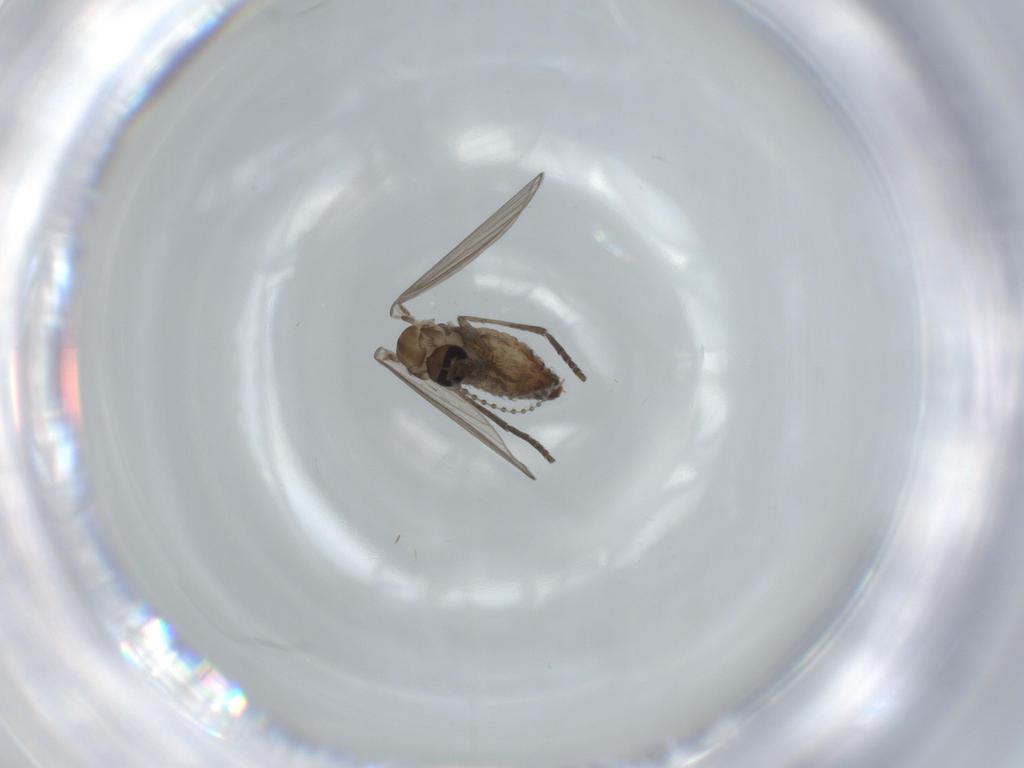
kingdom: Animalia
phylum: Arthropoda
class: Insecta
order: Diptera
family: Psychodidae
